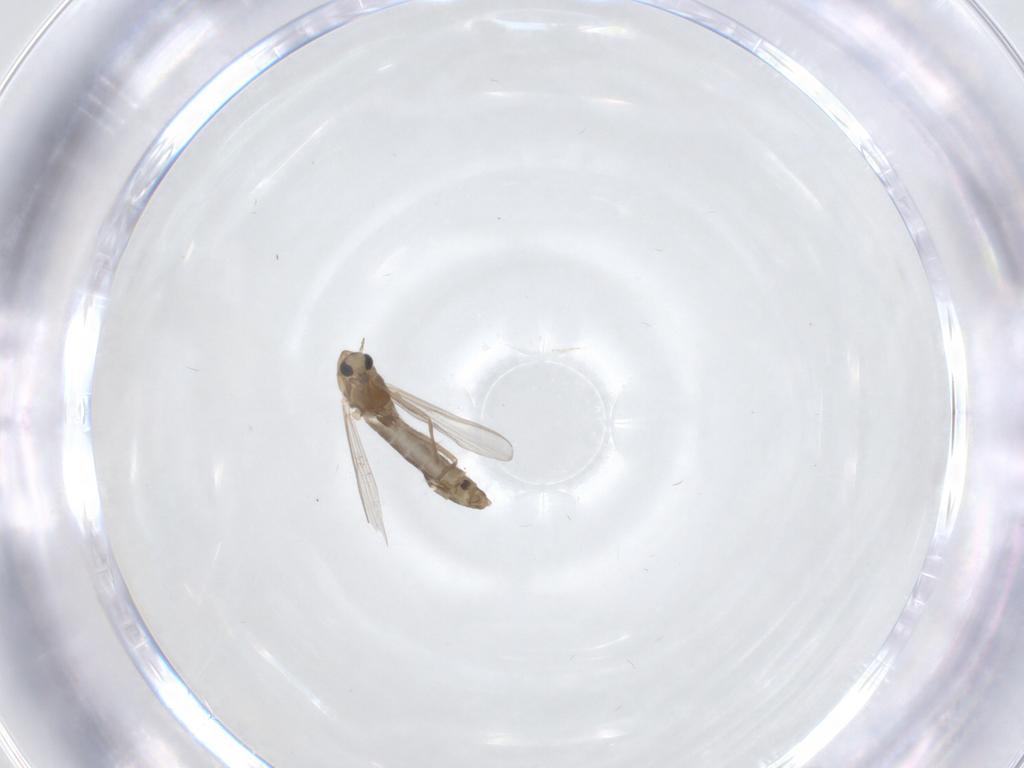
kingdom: Animalia
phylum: Arthropoda
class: Insecta
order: Diptera
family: Chironomidae
